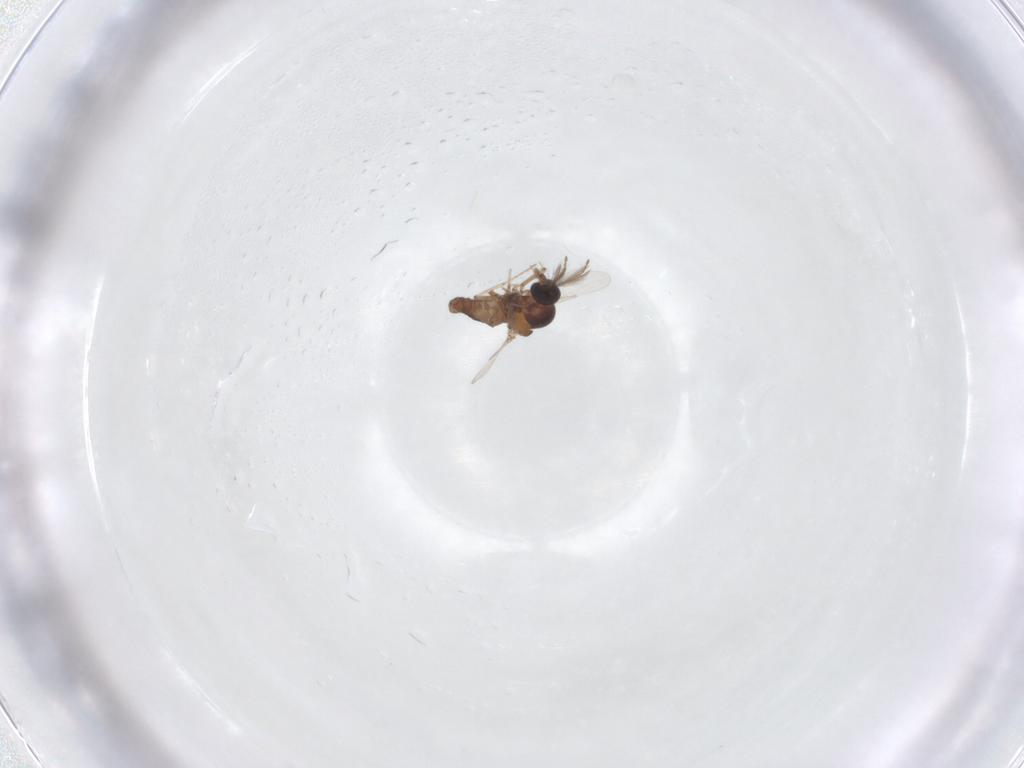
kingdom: Animalia
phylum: Arthropoda
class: Insecta
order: Diptera
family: Ceratopogonidae
